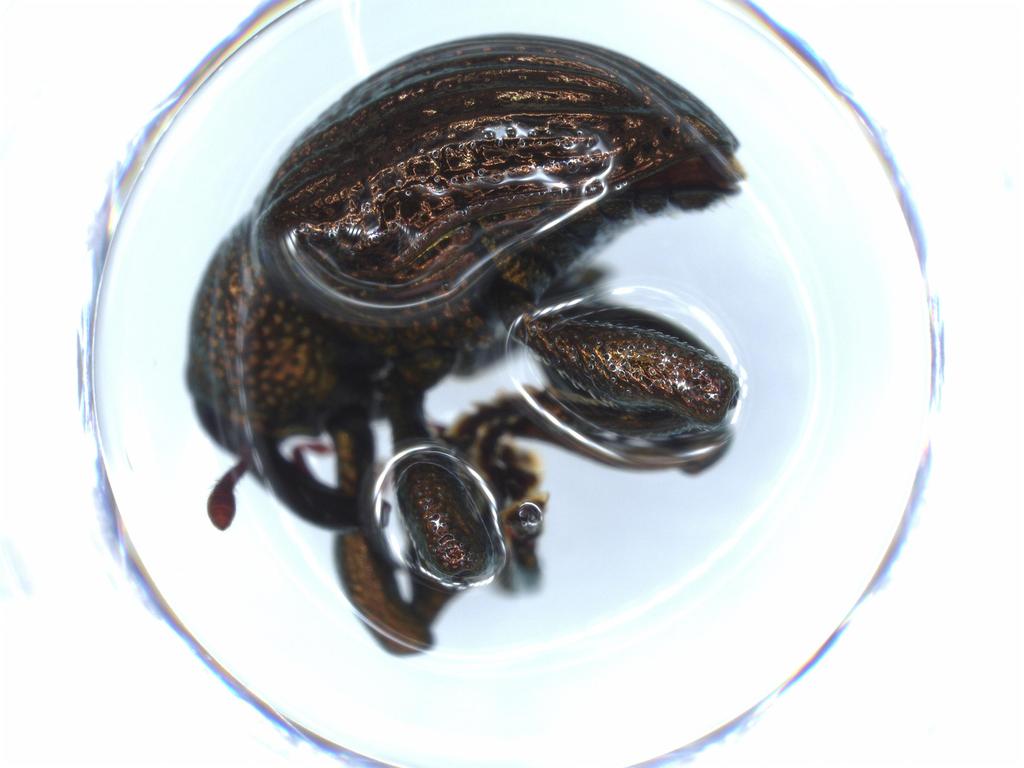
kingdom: Animalia
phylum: Arthropoda
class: Insecta
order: Coleoptera
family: Curculionidae
